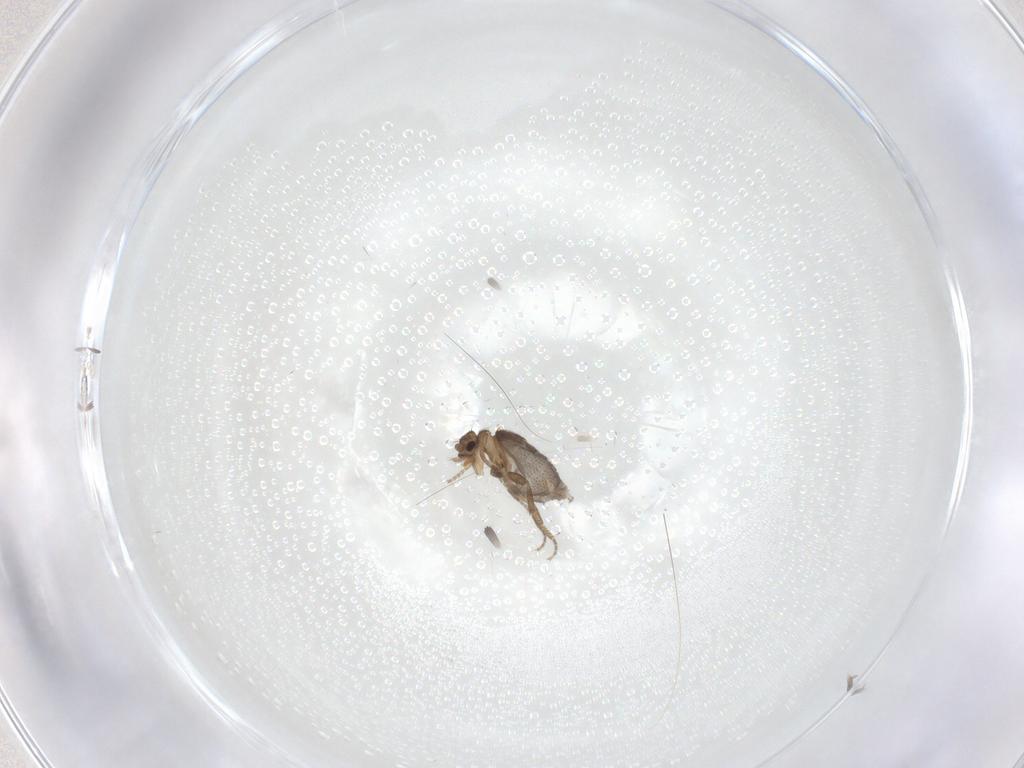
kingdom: Animalia
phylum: Arthropoda
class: Insecta
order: Diptera
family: Phoridae
